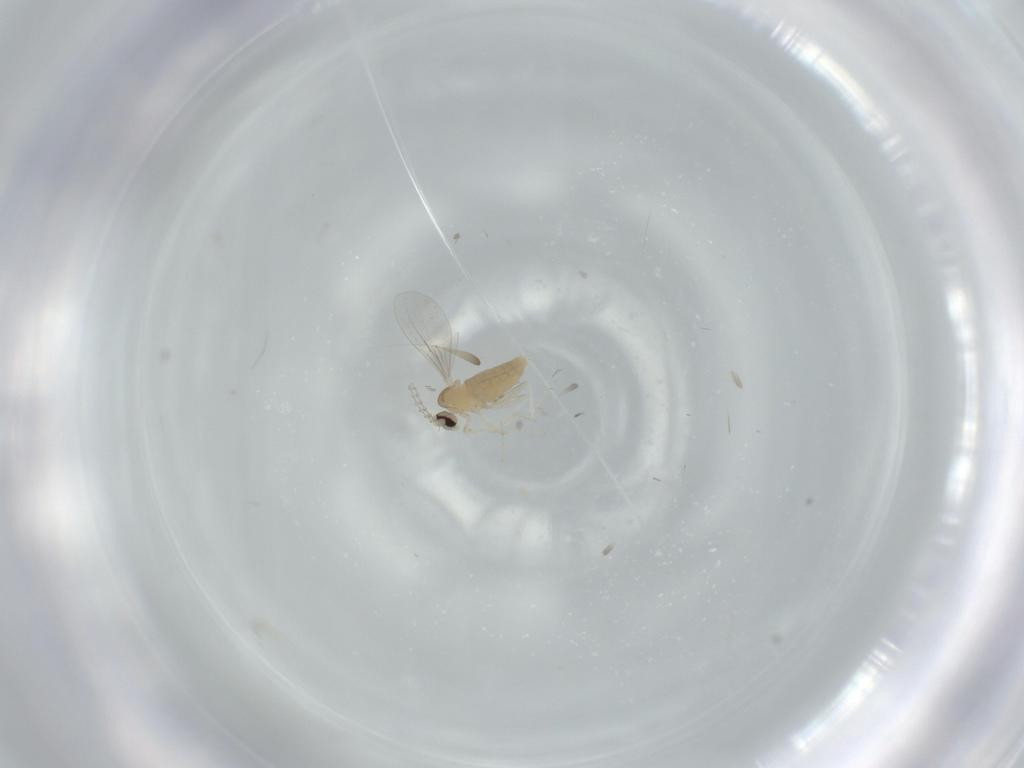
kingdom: Animalia
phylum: Arthropoda
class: Insecta
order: Diptera
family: Cecidomyiidae
